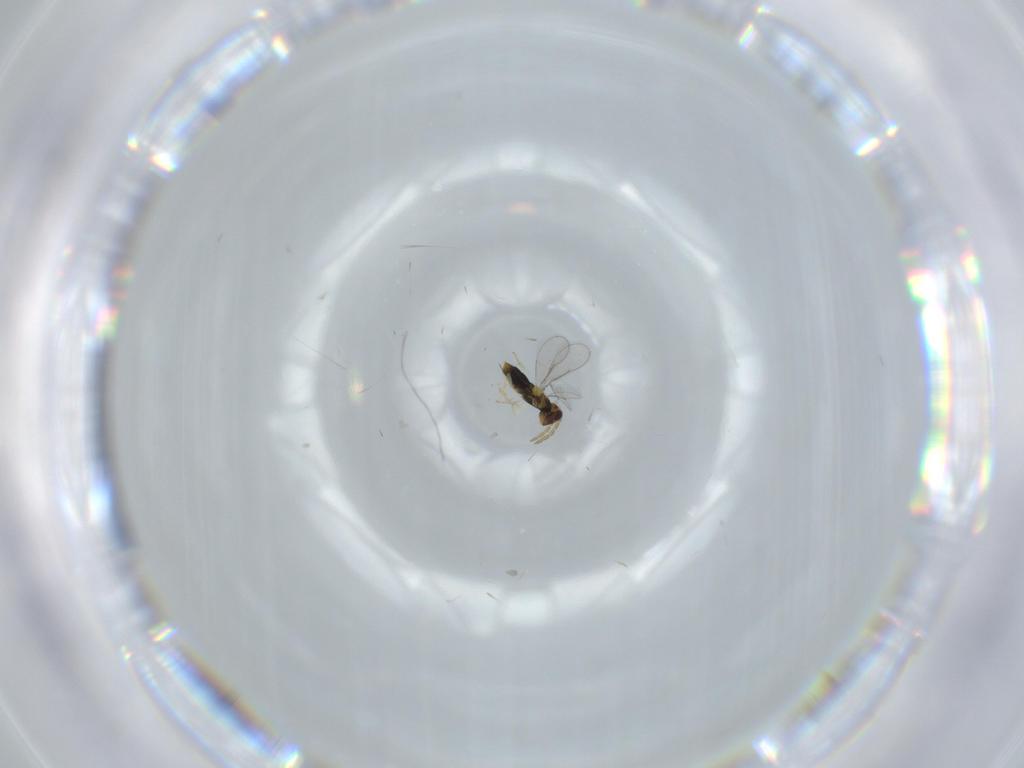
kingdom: Animalia
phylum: Arthropoda
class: Insecta
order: Hymenoptera
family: Aphelinidae
